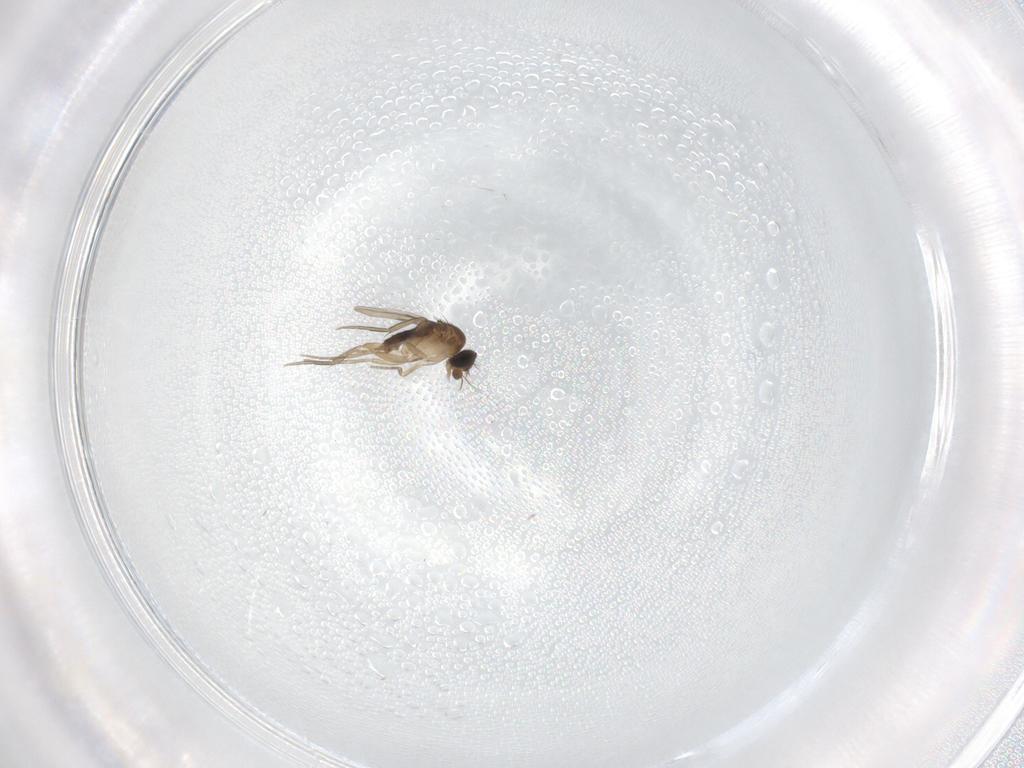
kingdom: Animalia
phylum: Arthropoda
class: Insecta
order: Diptera
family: Phoridae
